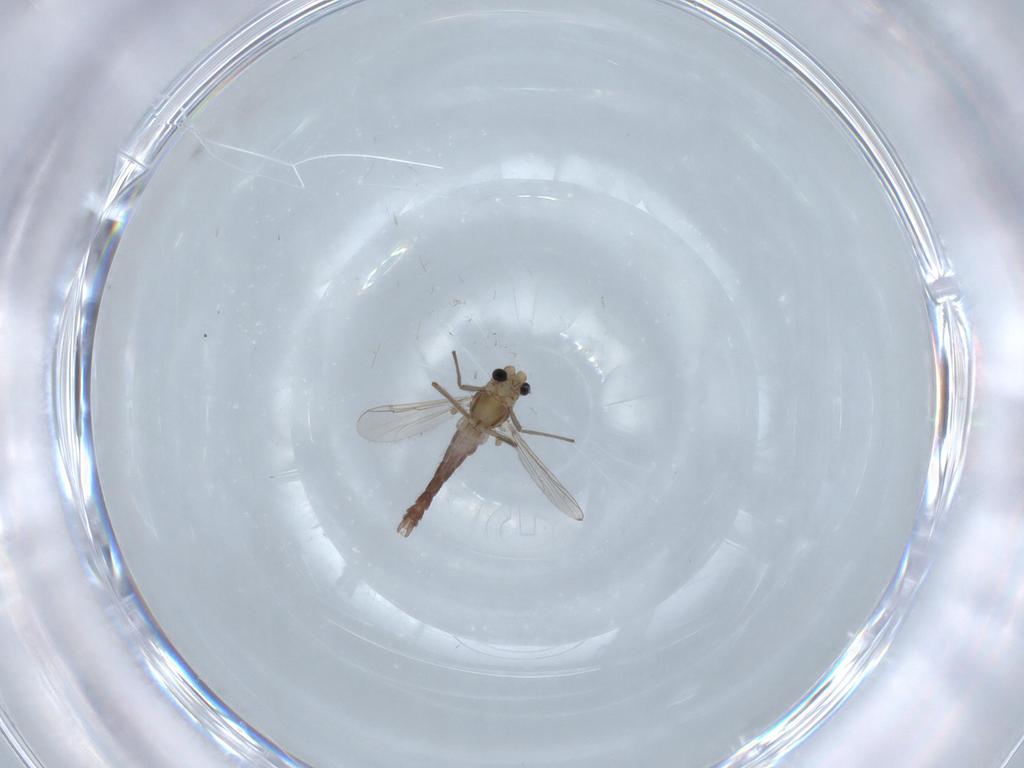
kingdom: Animalia
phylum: Arthropoda
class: Insecta
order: Diptera
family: Chironomidae
